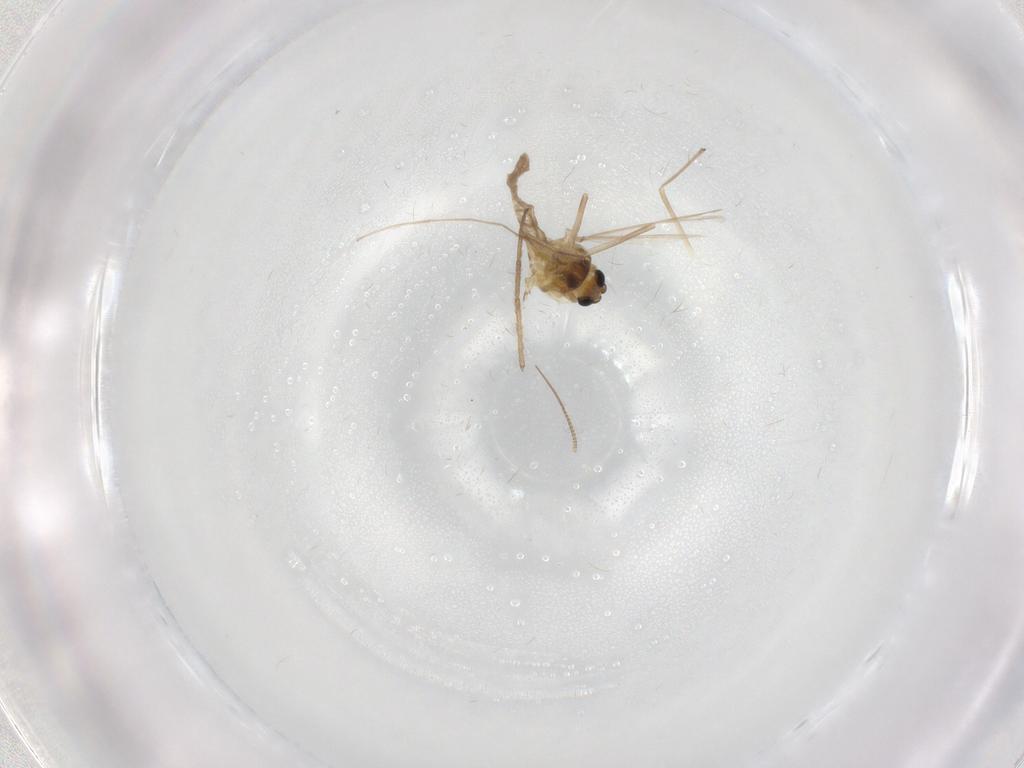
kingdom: Animalia
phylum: Arthropoda
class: Insecta
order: Diptera
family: Chironomidae
